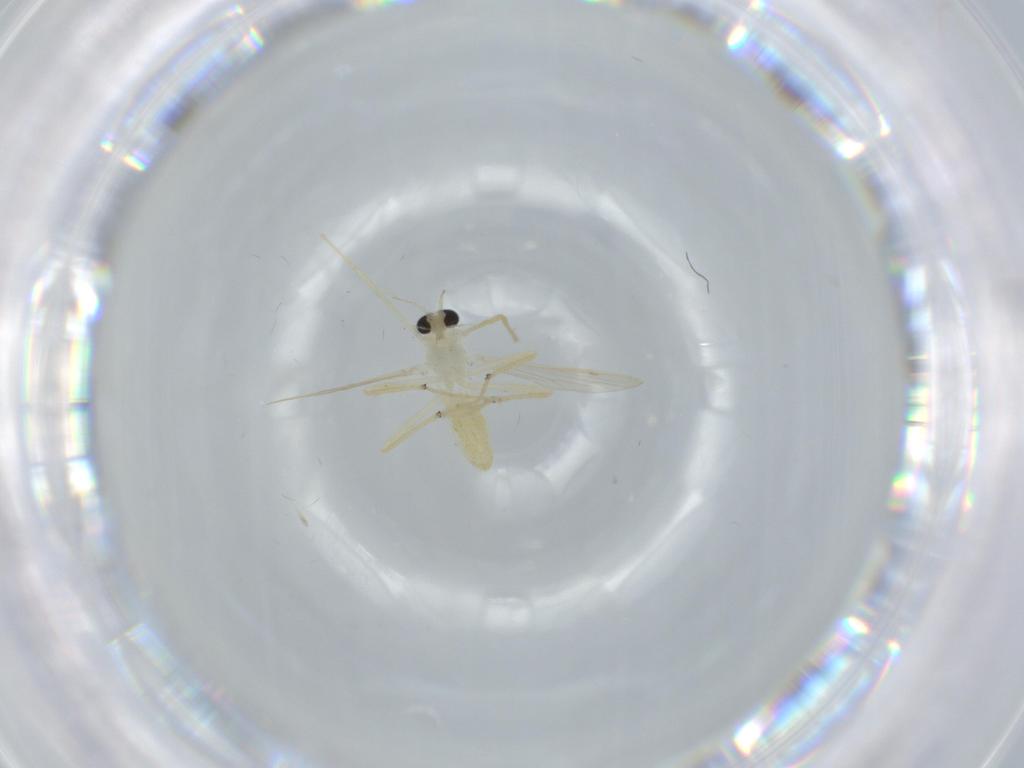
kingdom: Animalia
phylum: Arthropoda
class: Insecta
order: Diptera
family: Chironomidae
